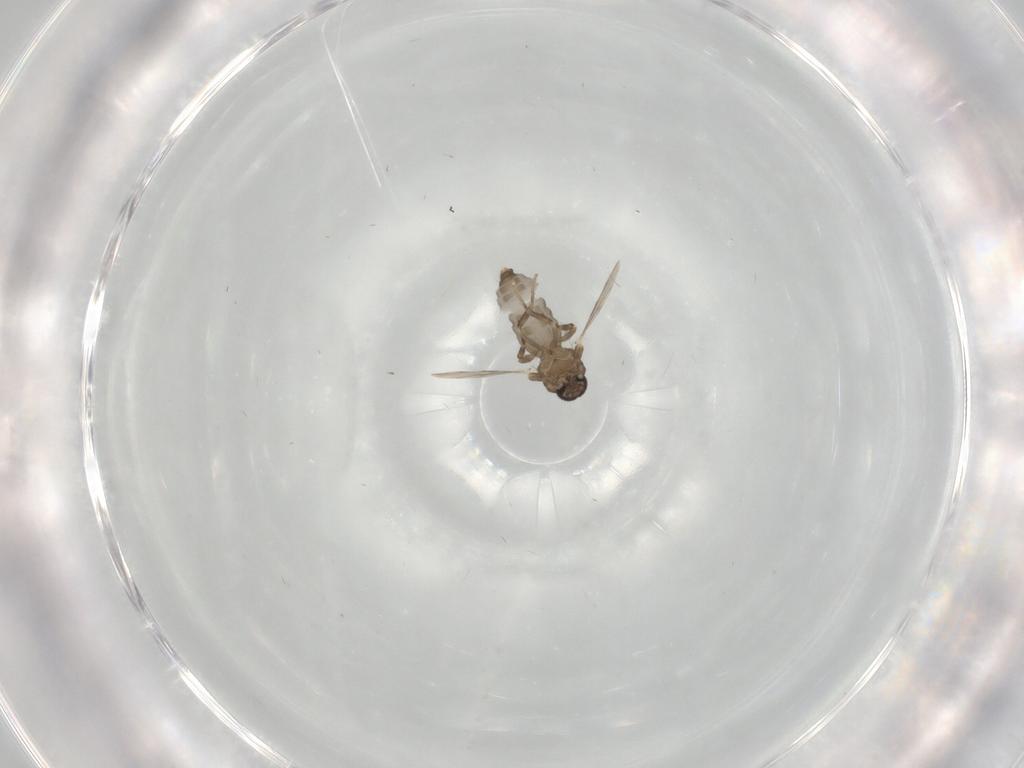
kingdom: Animalia
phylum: Arthropoda
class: Insecta
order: Diptera
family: Ceratopogonidae
